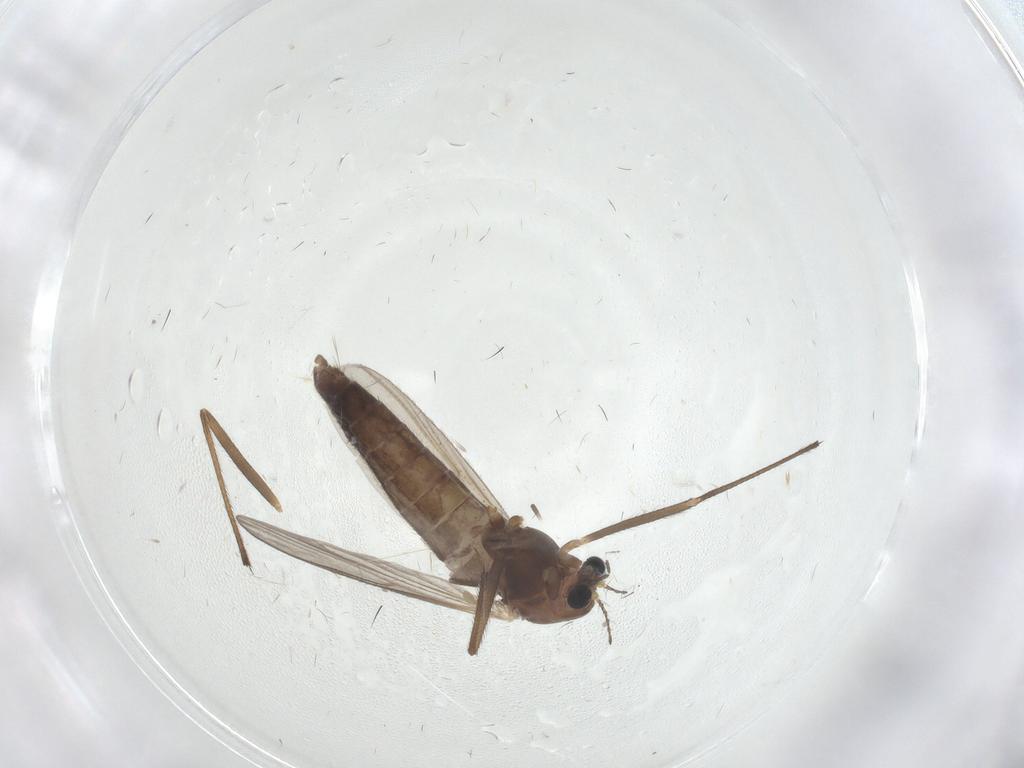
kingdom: Animalia
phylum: Arthropoda
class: Insecta
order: Diptera
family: Chironomidae
